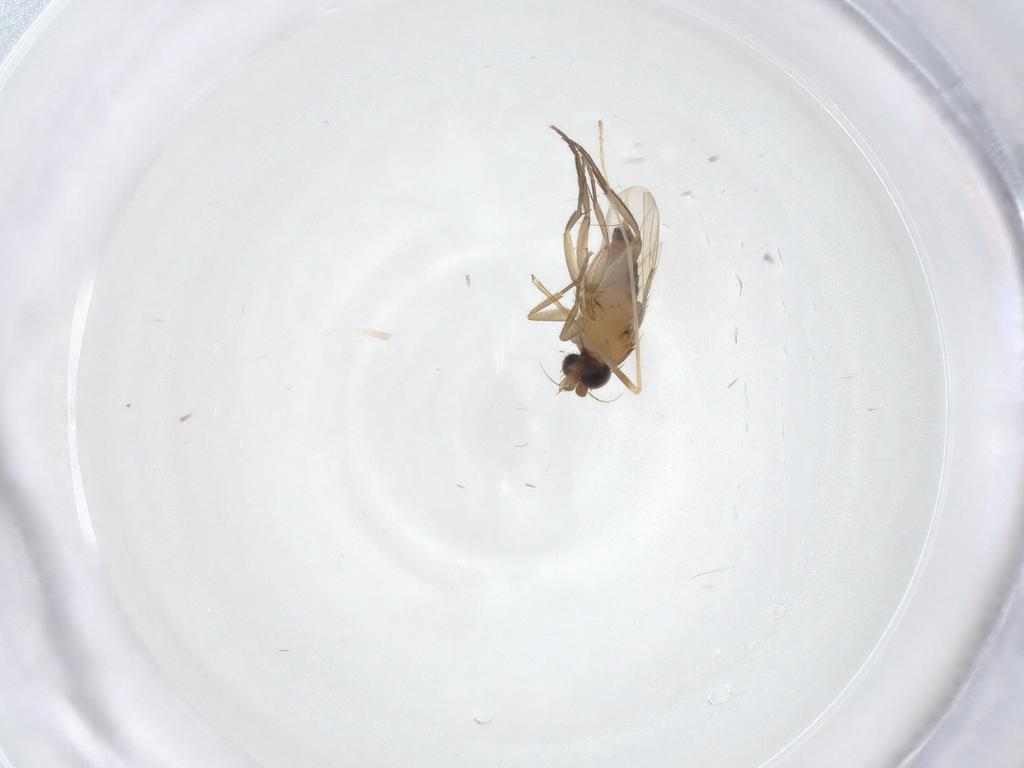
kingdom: Animalia
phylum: Arthropoda
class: Insecta
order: Diptera
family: Phoridae
